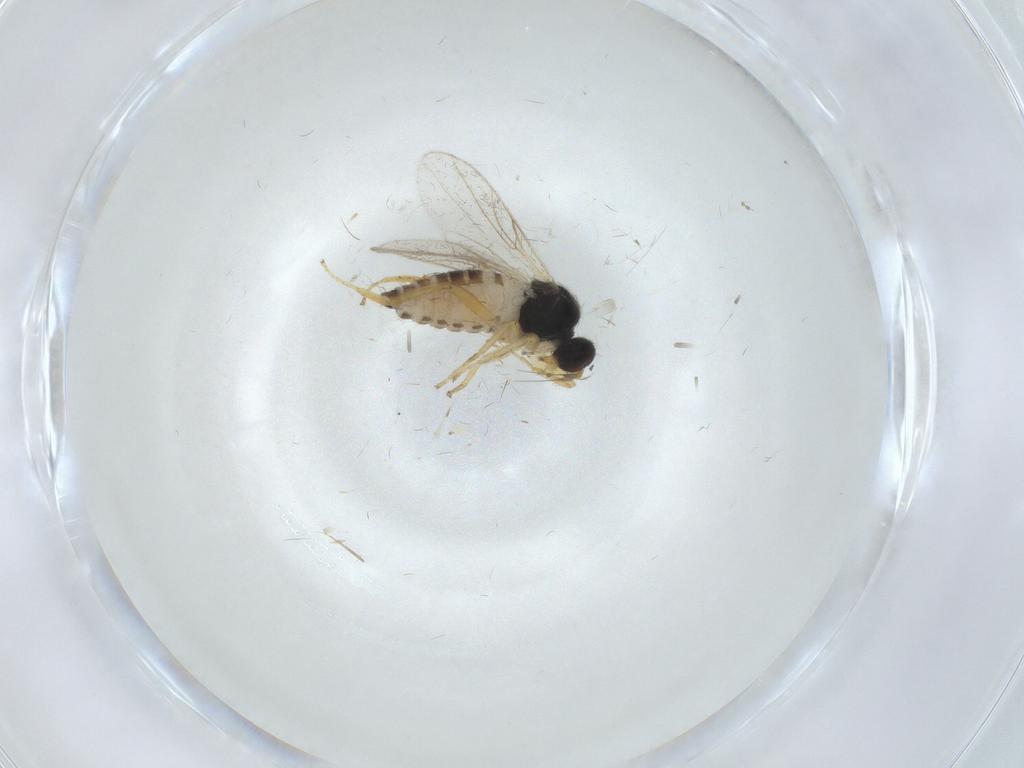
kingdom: Animalia
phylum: Arthropoda
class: Insecta
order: Diptera
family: Hybotidae
